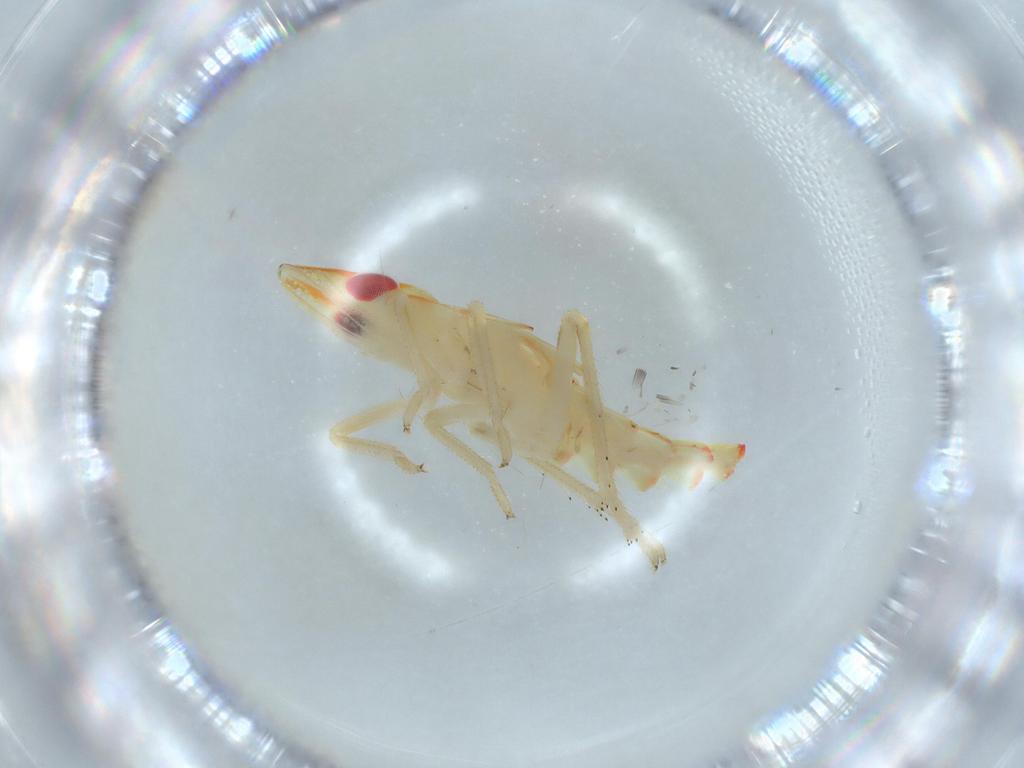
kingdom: Animalia
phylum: Arthropoda
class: Insecta
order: Hemiptera
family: Tropiduchidae
